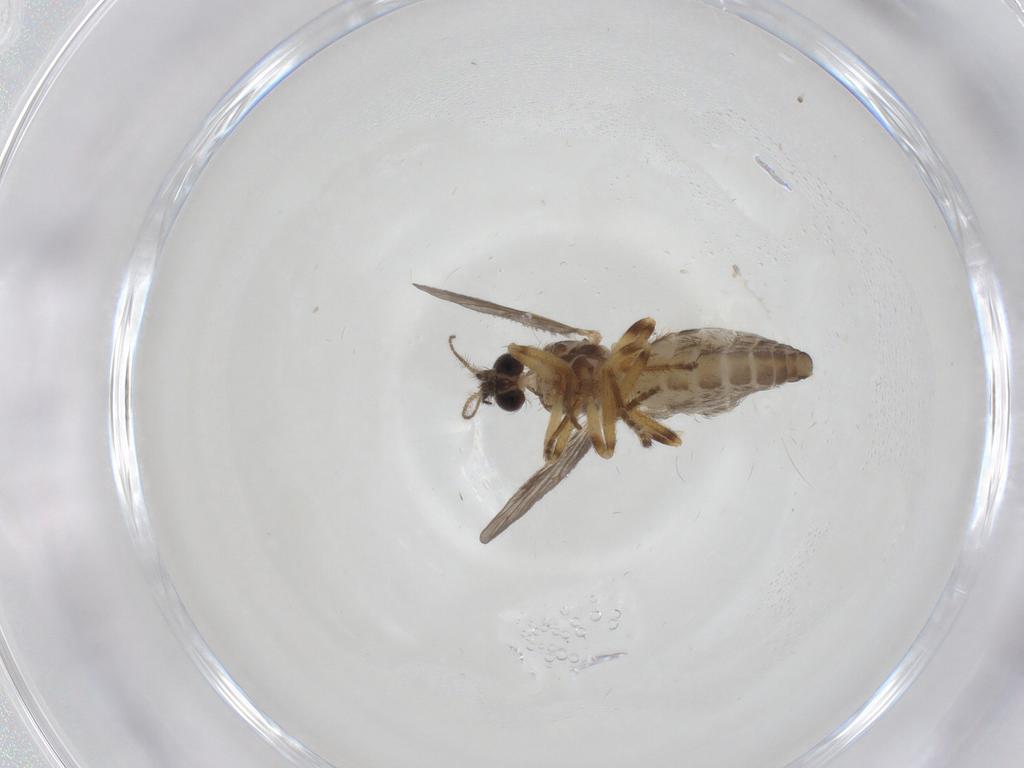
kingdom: Animalia
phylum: Arthropoda
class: Insecta
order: Diptera
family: Ceratopogonidae
